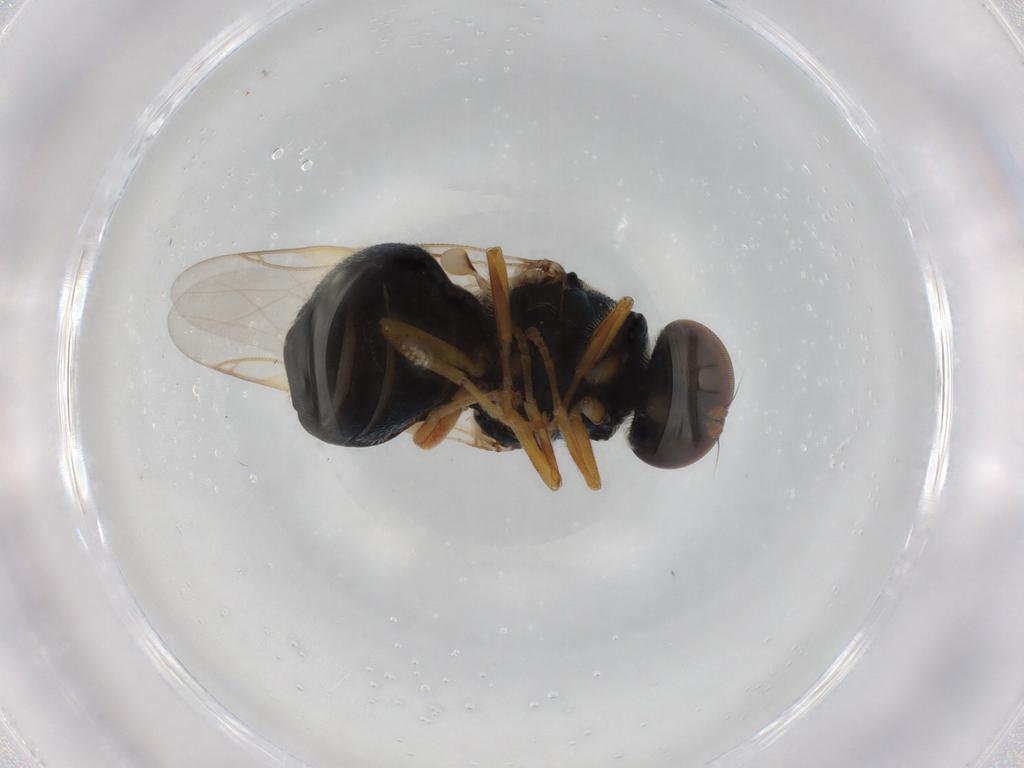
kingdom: Animalia
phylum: Arthropoda
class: Insecta
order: Diptera
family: Stratiomyidae
